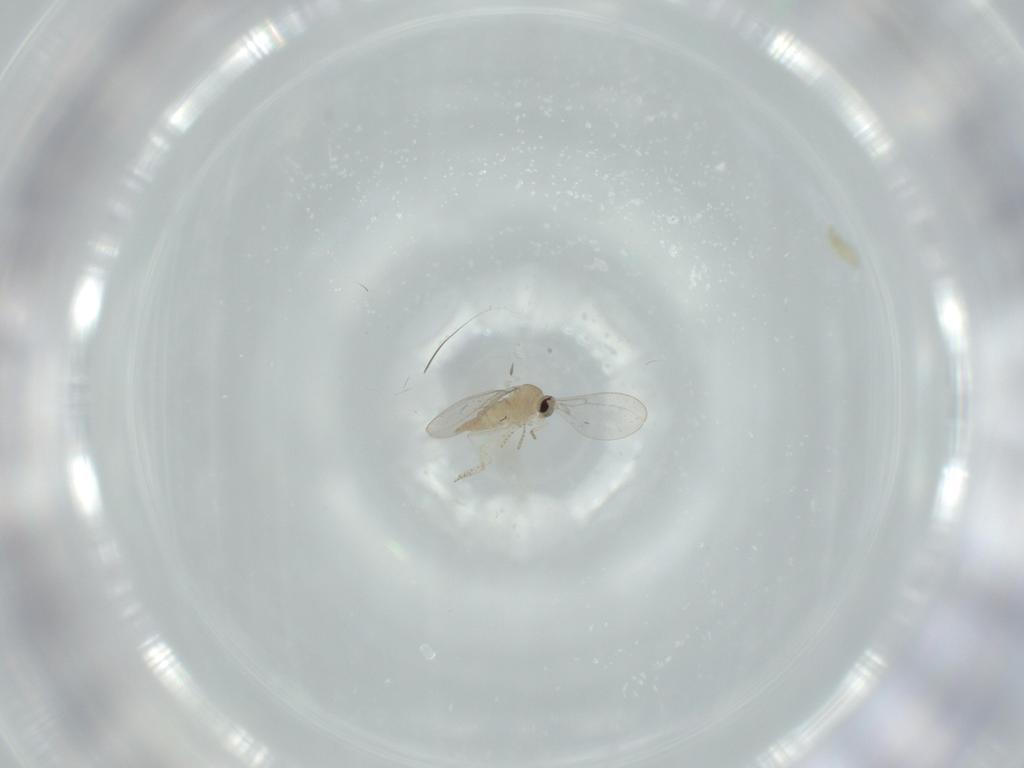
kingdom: Animalia
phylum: Arthropoda
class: Insecta
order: Diptera
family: Cecidomyiidae
